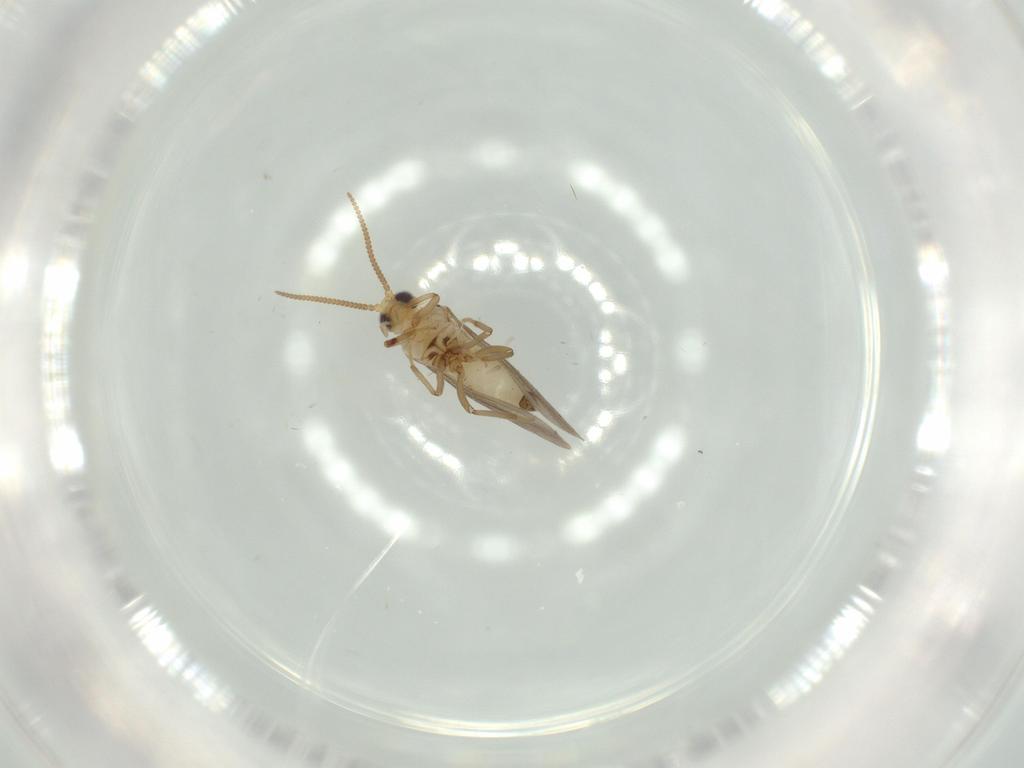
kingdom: Animalia
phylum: Arthropoda
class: Insecta
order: Neuroptera
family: Coniopterygidae
